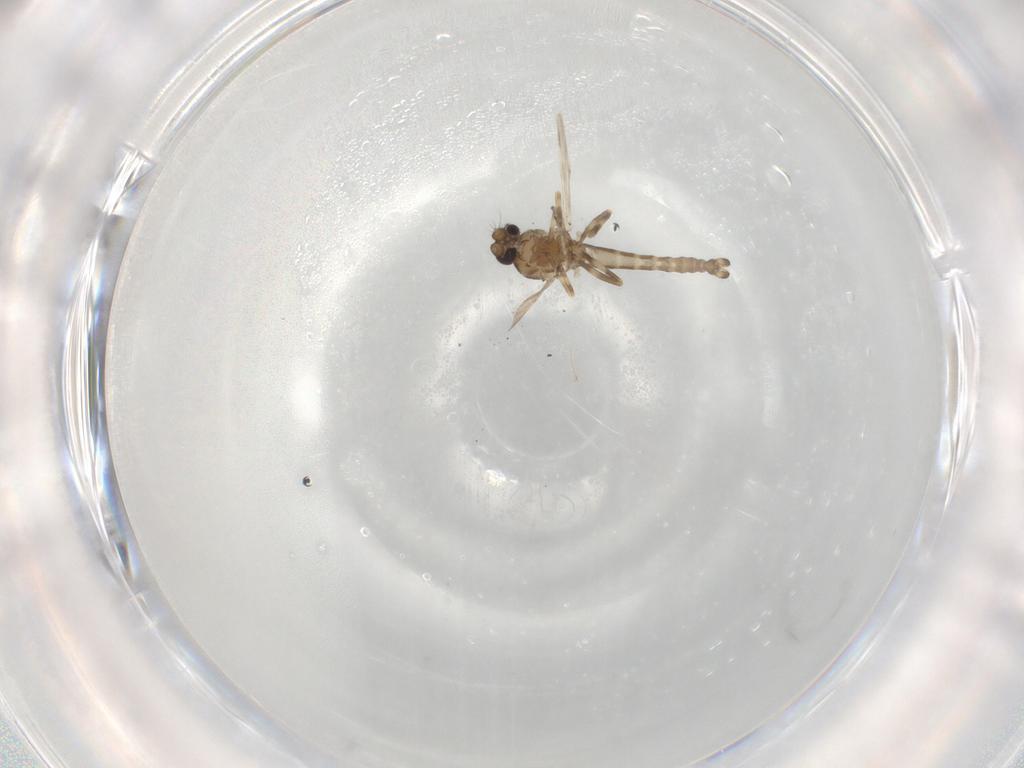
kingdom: Animalia
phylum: Arthropoda
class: Insecta
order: Diptera
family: Ceratopogonidae
